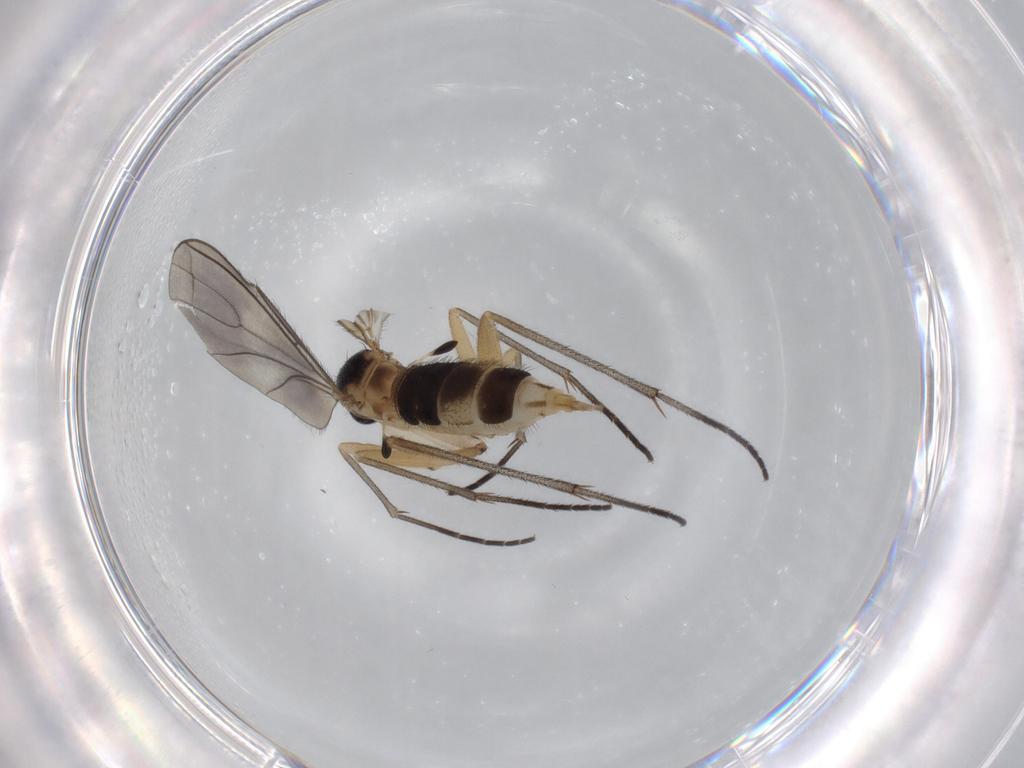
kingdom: Animalia
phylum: Arthropoda
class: Insecta
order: Diptera
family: Sciaridae
